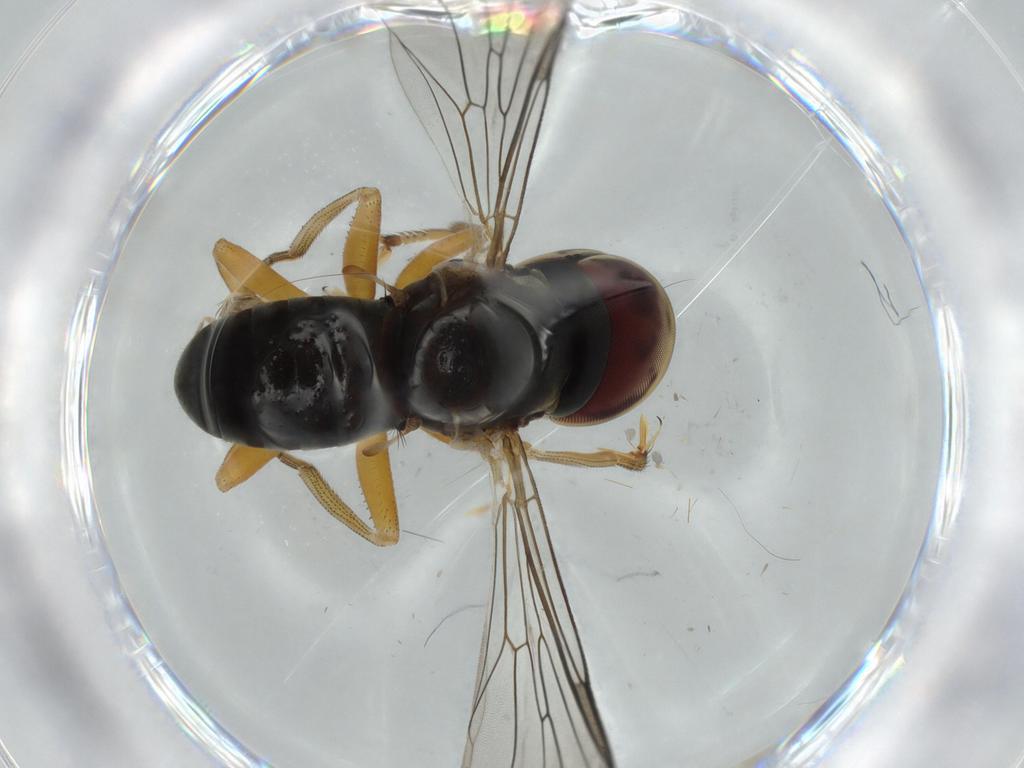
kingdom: Animalia
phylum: Arthropoda
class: Insecta
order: Diptera
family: Pipunculidae
